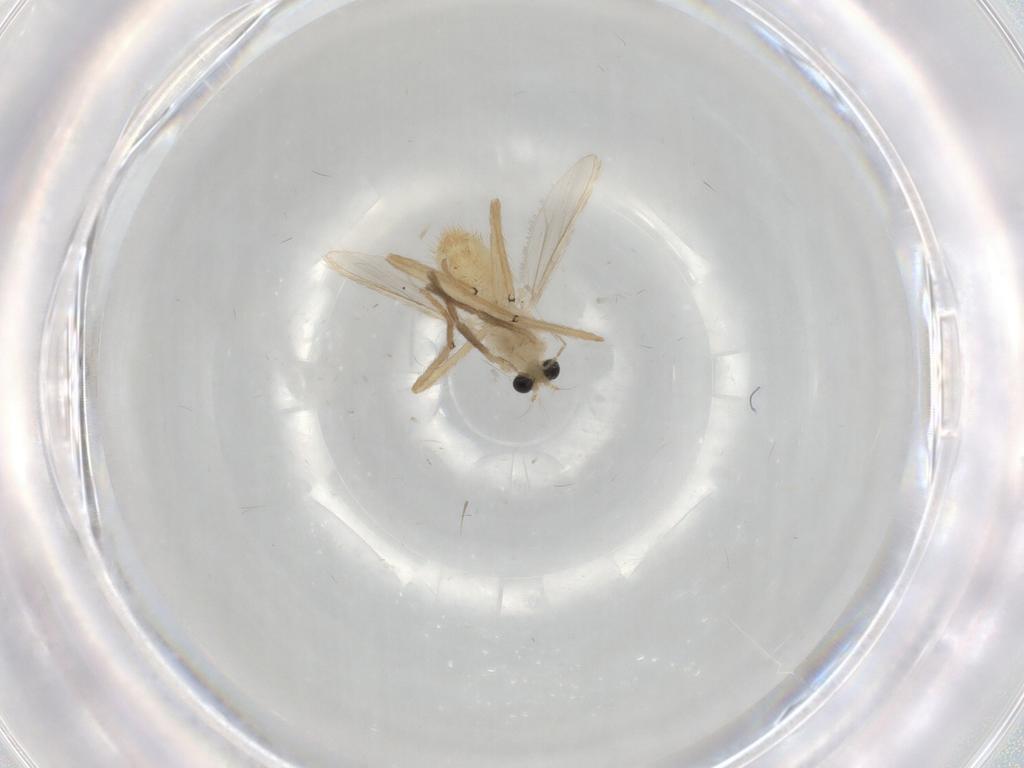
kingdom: Animalia
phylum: Arthropoda
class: Insecta
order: Diptera
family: Chironomidae
